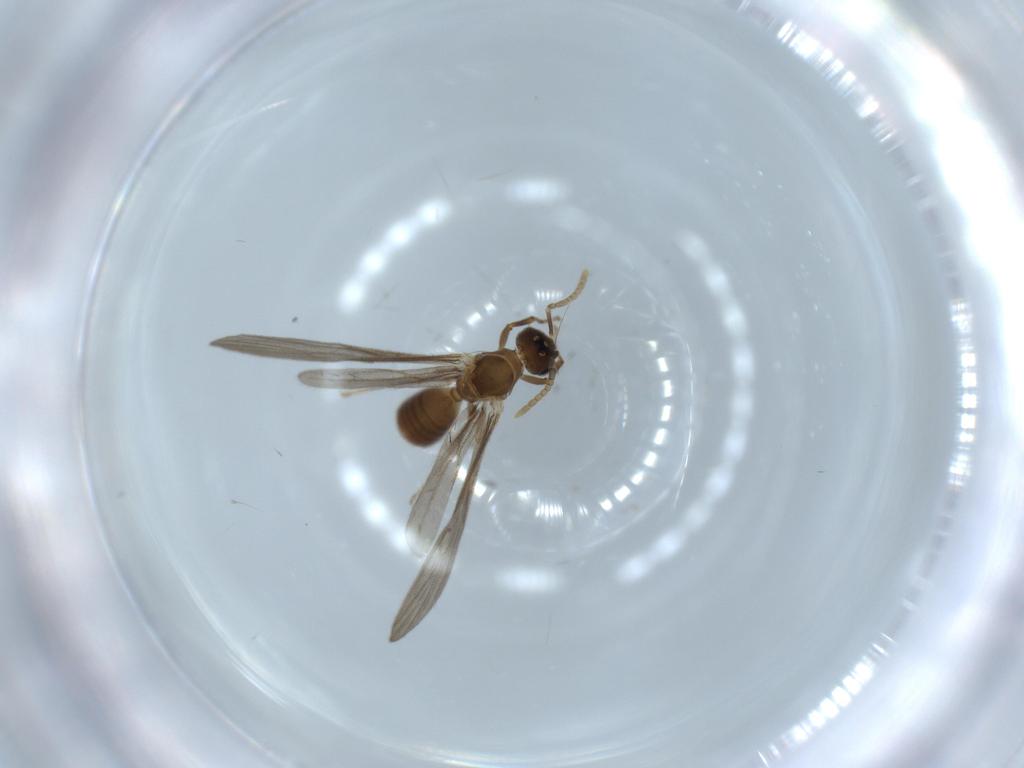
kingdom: Animalia
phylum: Arthropoda
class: Insecta
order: Hymenoptera
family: Formicidae
